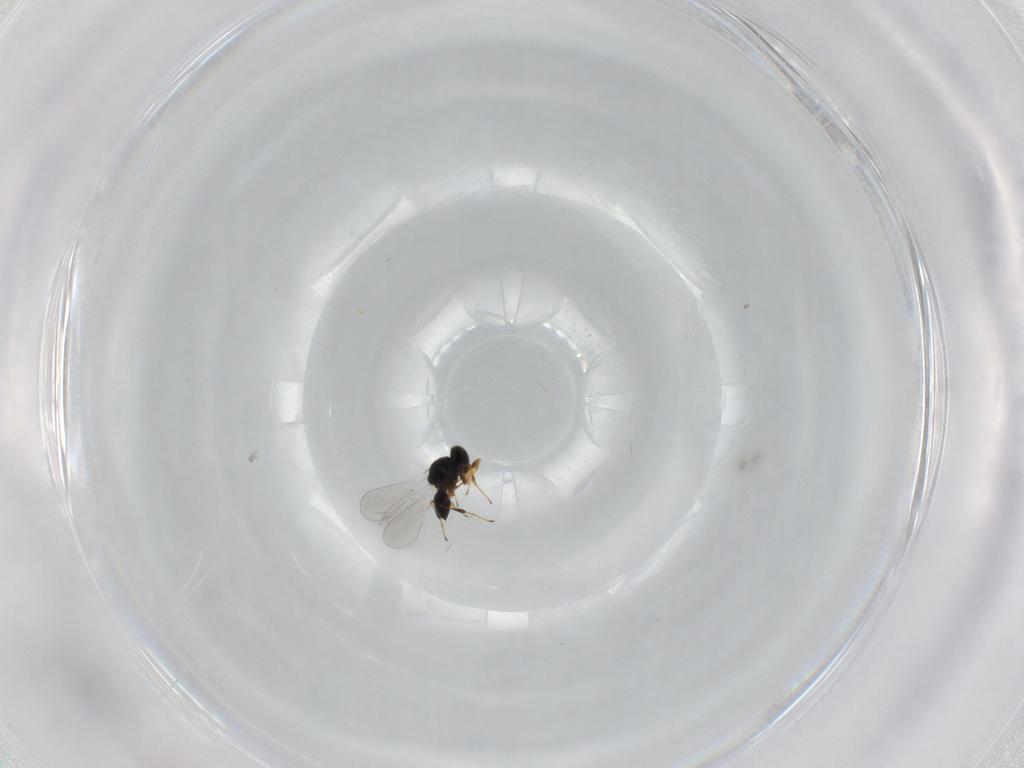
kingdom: Animalia
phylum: Arthropoda
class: Insecta
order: Hymenoptera
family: Platygastridae
